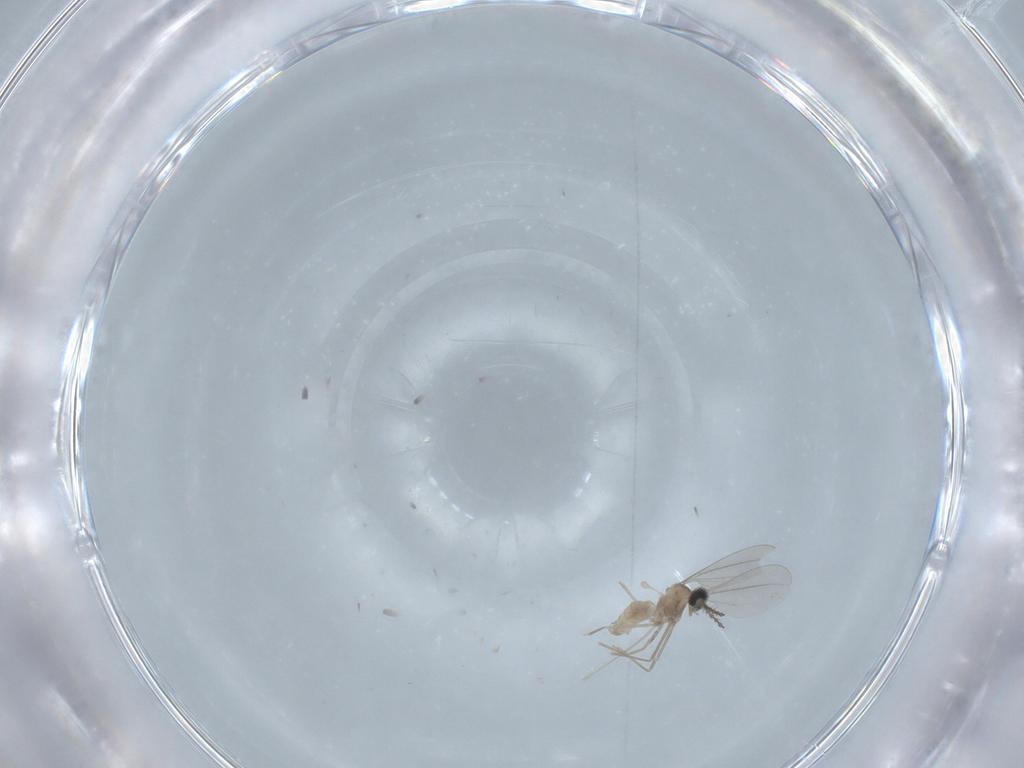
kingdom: Animalia
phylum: Arthropoda
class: Insecta
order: Diptera
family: Cecidomyiidae
